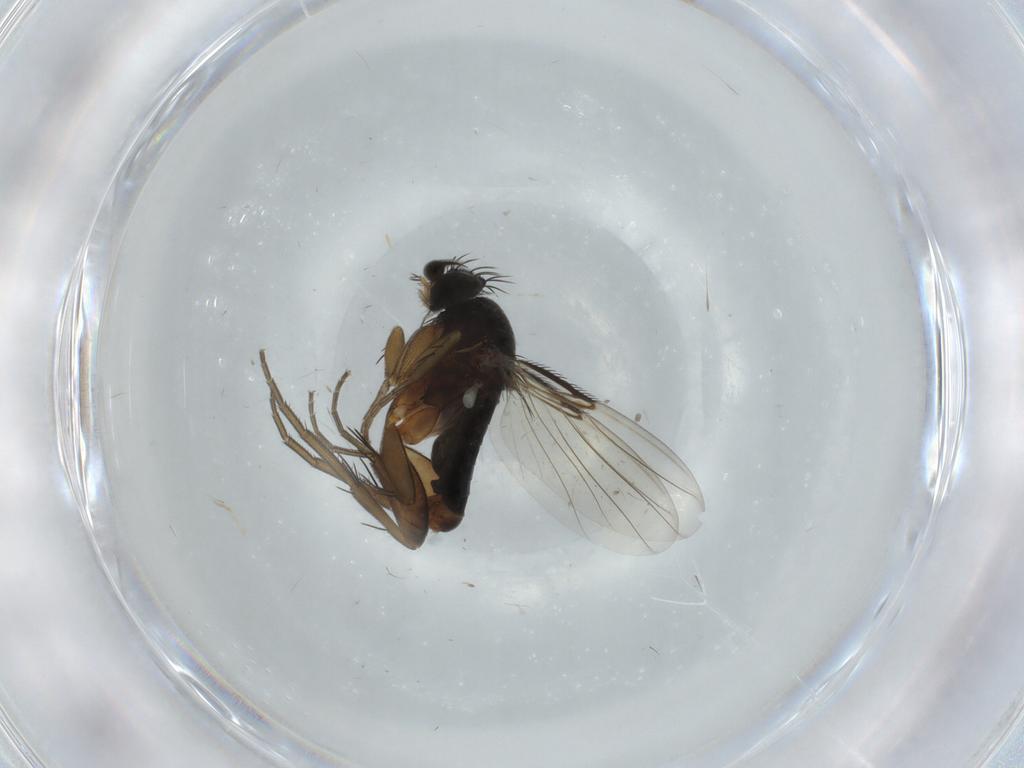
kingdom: Animalia
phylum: Arthropoda
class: Insecta
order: Diptera
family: Phoridae
